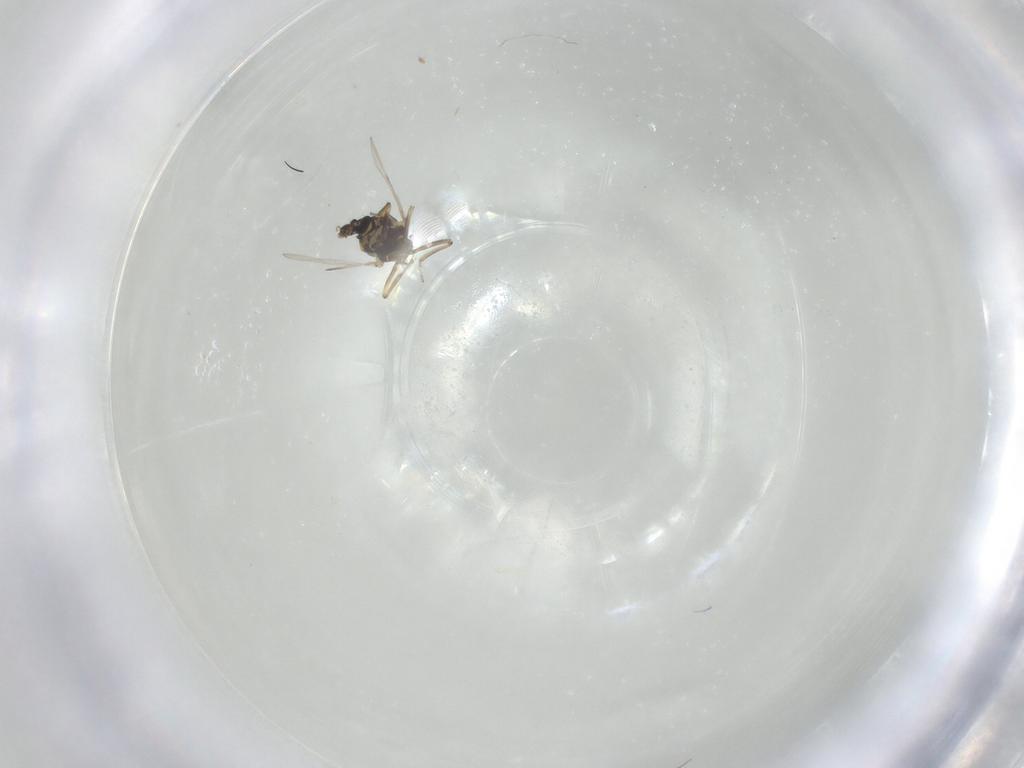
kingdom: Animalia
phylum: Arthropoda
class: Insecta
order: Diptera
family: Ceratopogonidae
